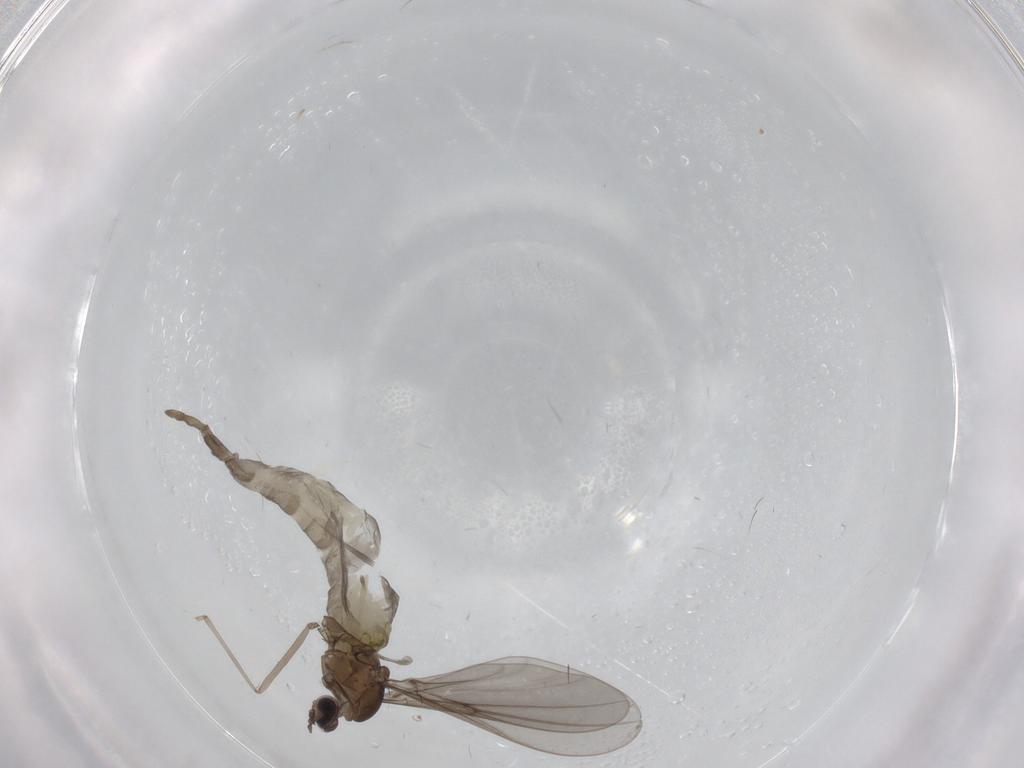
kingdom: Animalia
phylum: Arthropoda
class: Insecta
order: Diptera
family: Cecidomyiidae
